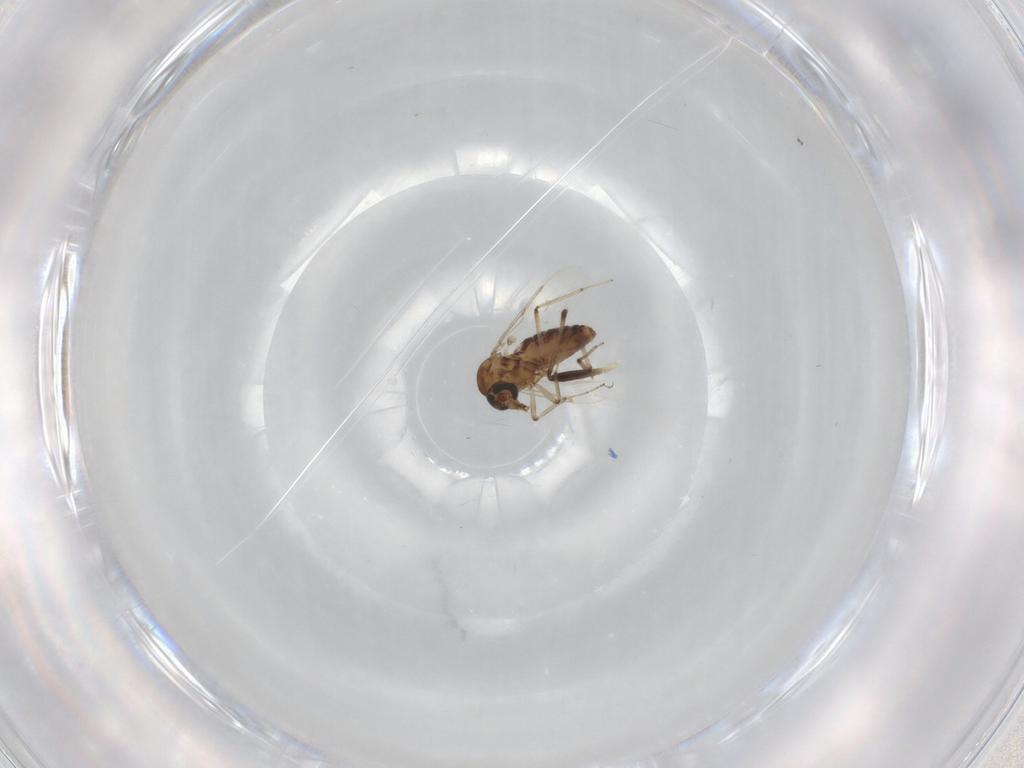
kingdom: Animalia
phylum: Arthropoda
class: Insecta
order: Diptera
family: Ceratopogonidae
